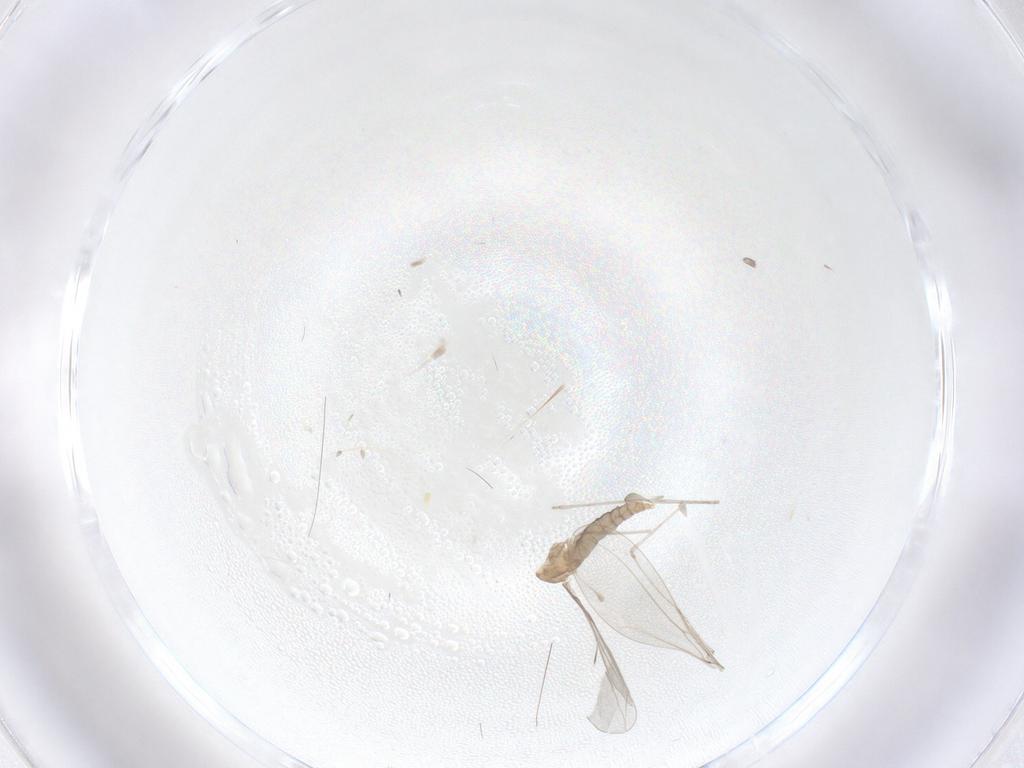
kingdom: Animalia
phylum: Arthropoda
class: Insecta
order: Diptera
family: Cecidomyiidae
